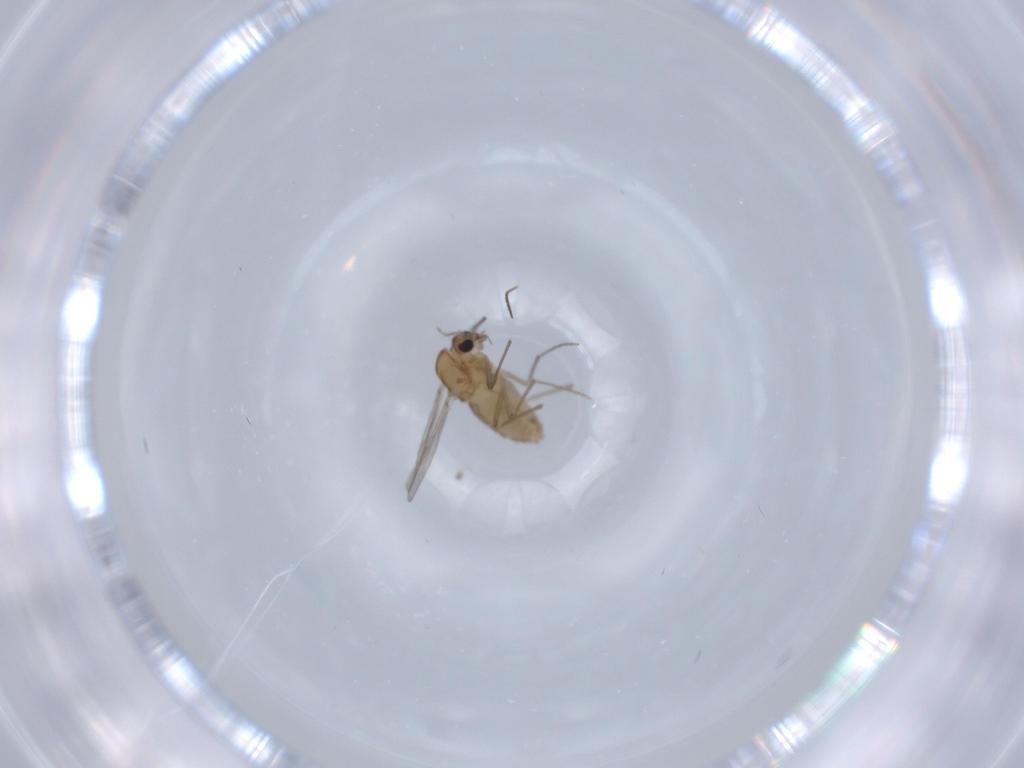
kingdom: Animalia
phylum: Arthropoda
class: Insecta
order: Diptera
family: Chironomidae
